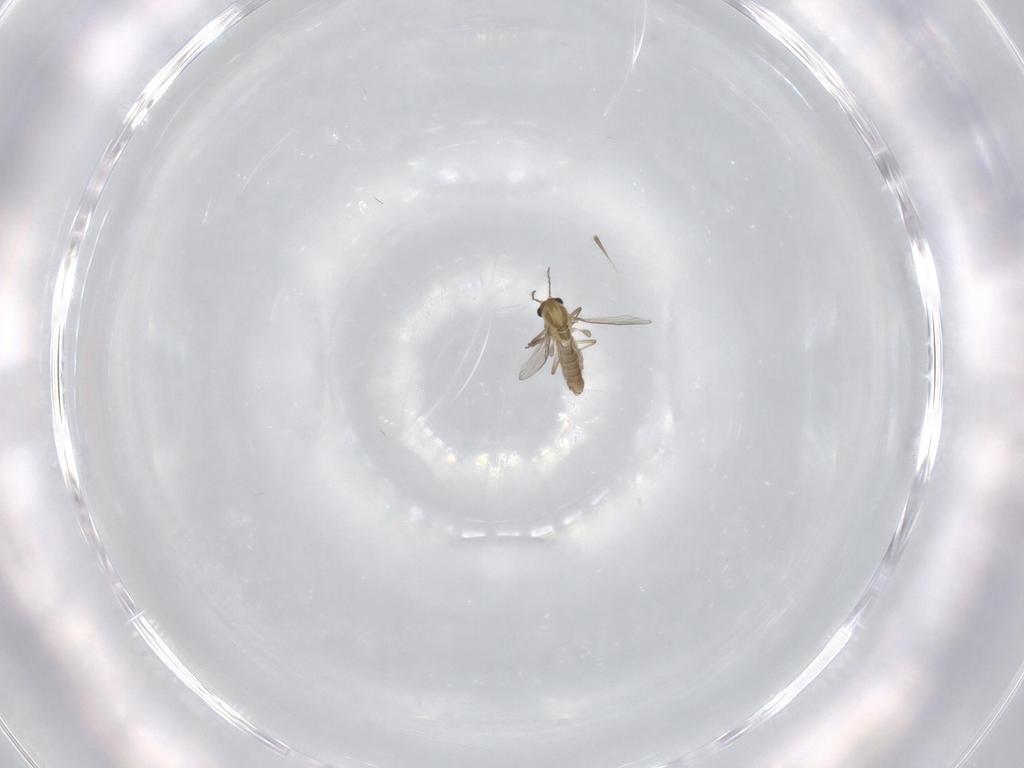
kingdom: Animalia
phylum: Arthropoda
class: Insecta
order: Diptera
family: Chironomidae
